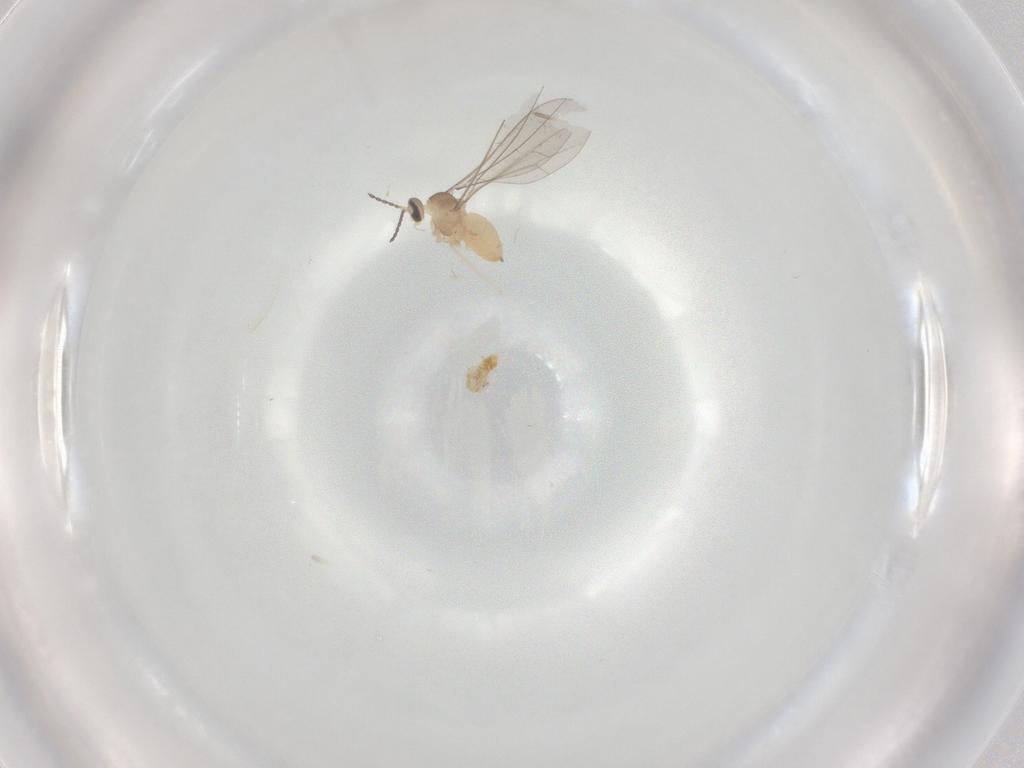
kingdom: Animalia
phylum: Arthropoda
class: Insecta
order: Diptera
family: Cecidomyiidae
